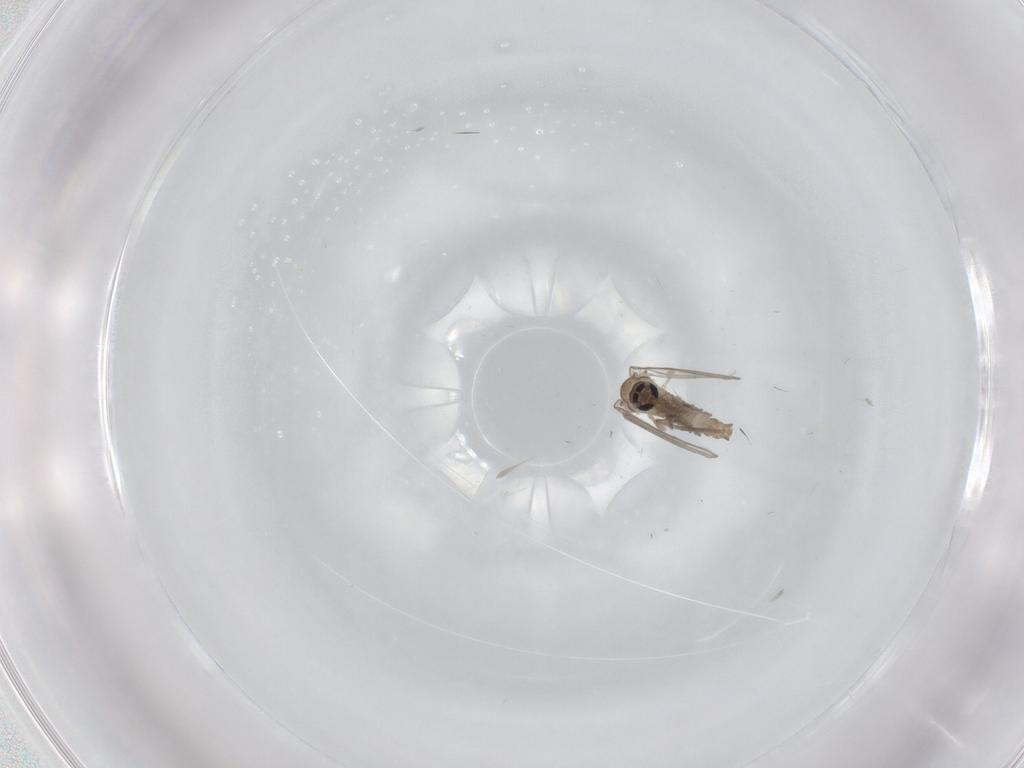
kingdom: Animalia
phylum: Arthropoda
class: Insecta
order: Diptera
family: Psychodidae
